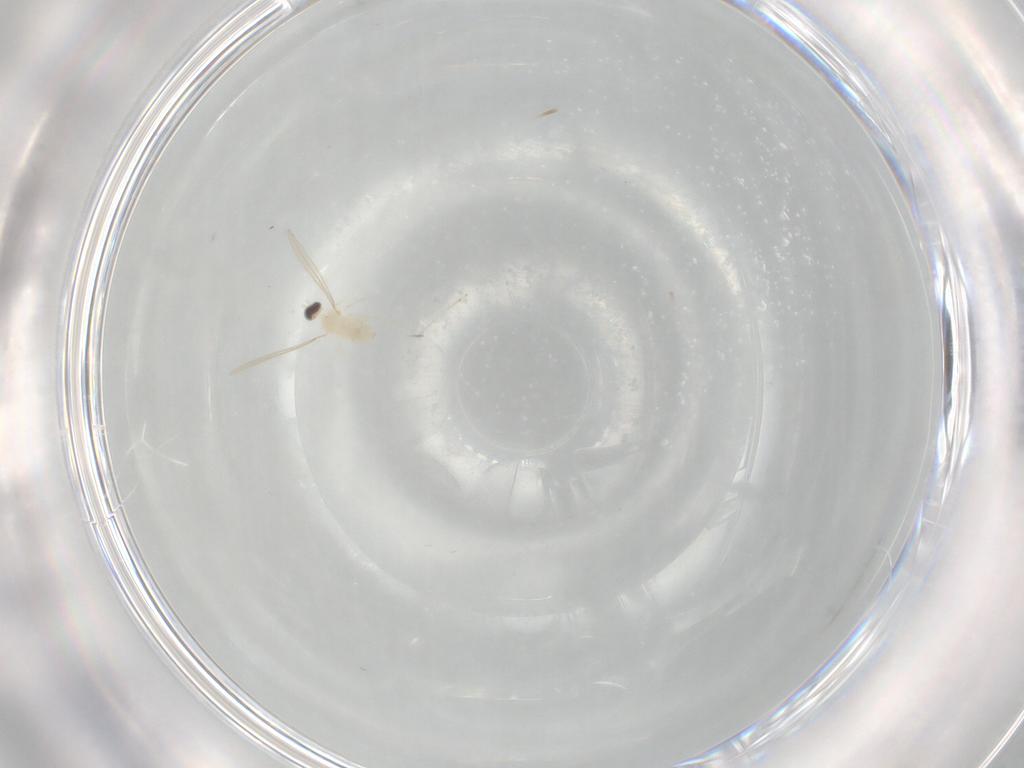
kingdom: Animalia
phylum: Arthropoda
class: Insecta
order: Diptera
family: Cecidomyiidae
